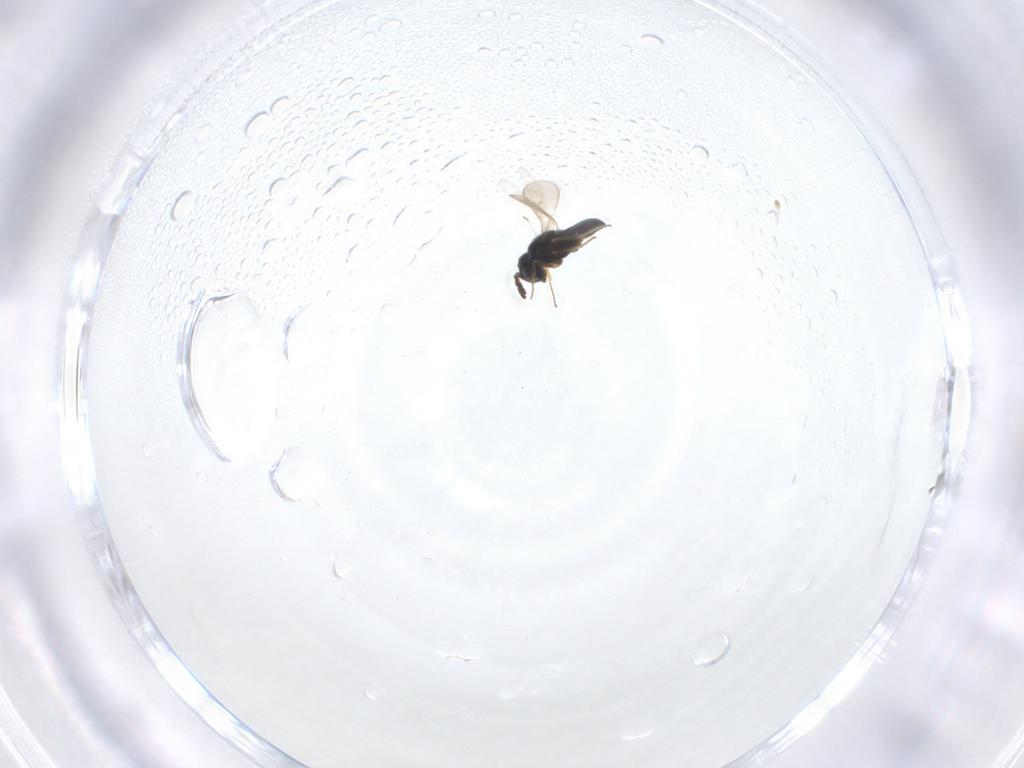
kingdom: Animalia
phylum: Arthropoda
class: Insecta
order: Hymenoptera
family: Scelionidae
